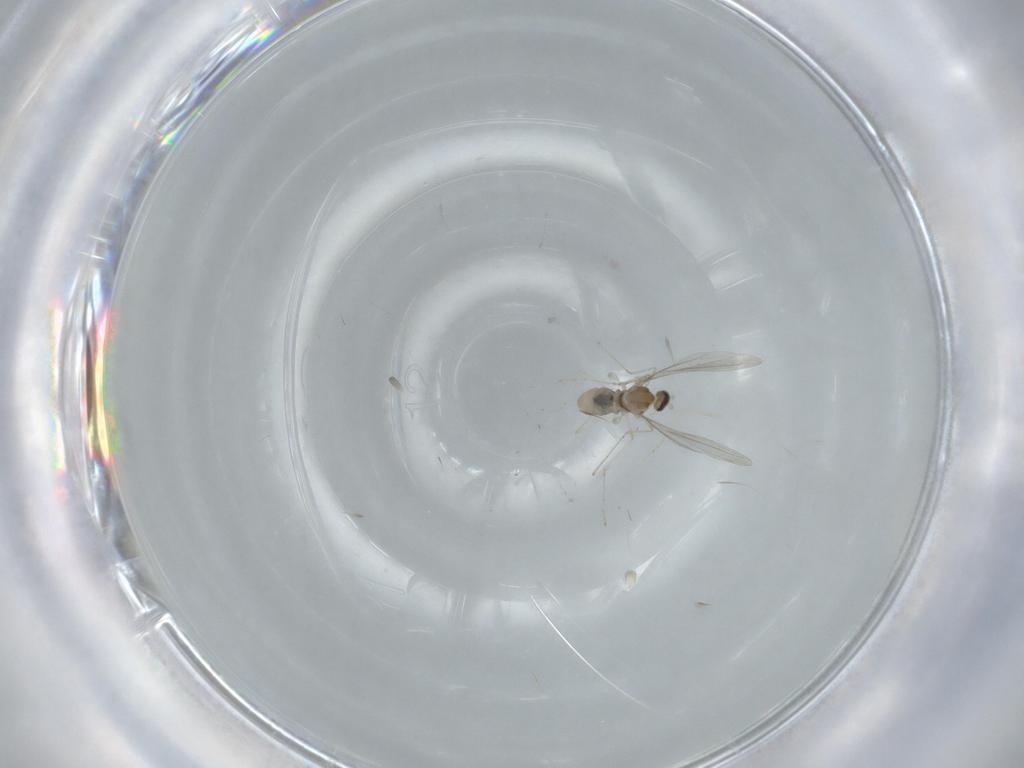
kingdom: Animalia
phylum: Arthropoda
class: Insecta
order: Diptera
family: Cecidomyiidae
